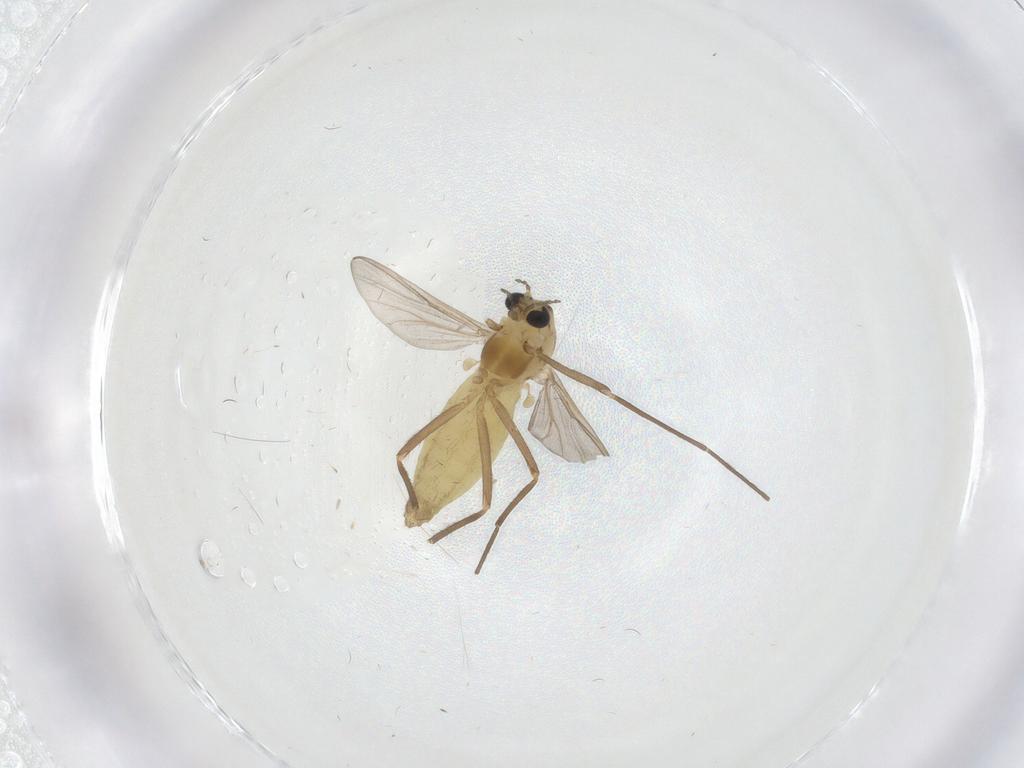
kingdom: Animalia
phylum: Arthropoda
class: Insecta
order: Diptera
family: Chironomidae
